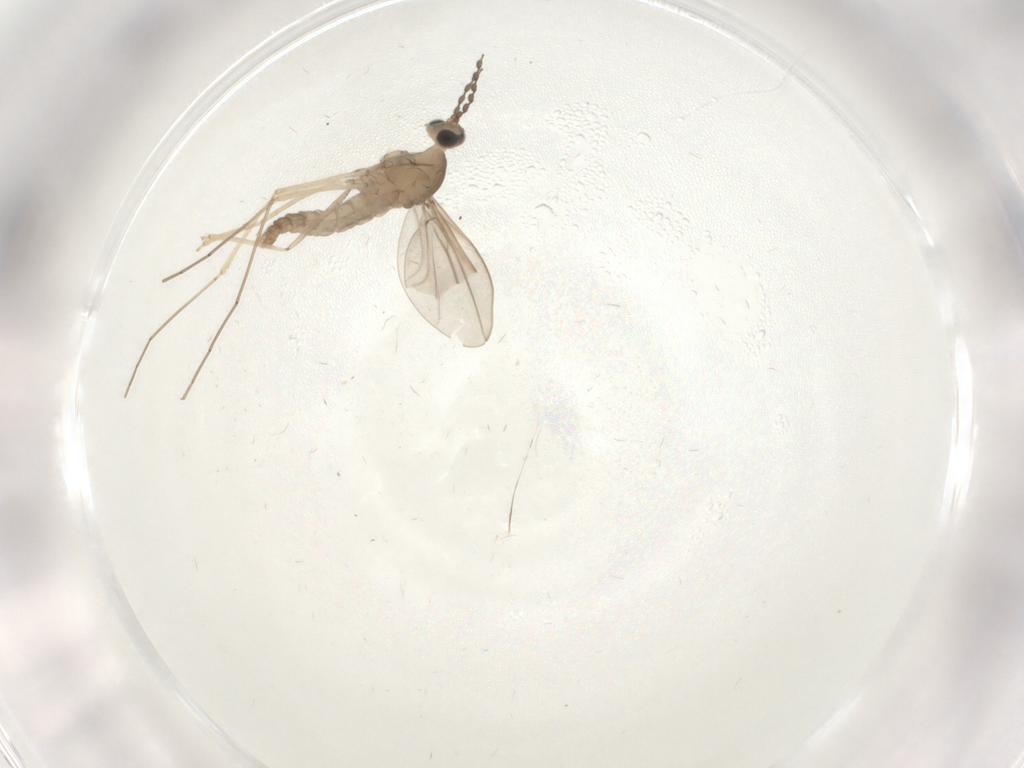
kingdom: Animalia
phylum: Arthropoda
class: Insecta
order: Diptera
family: Cecidomyiidae
